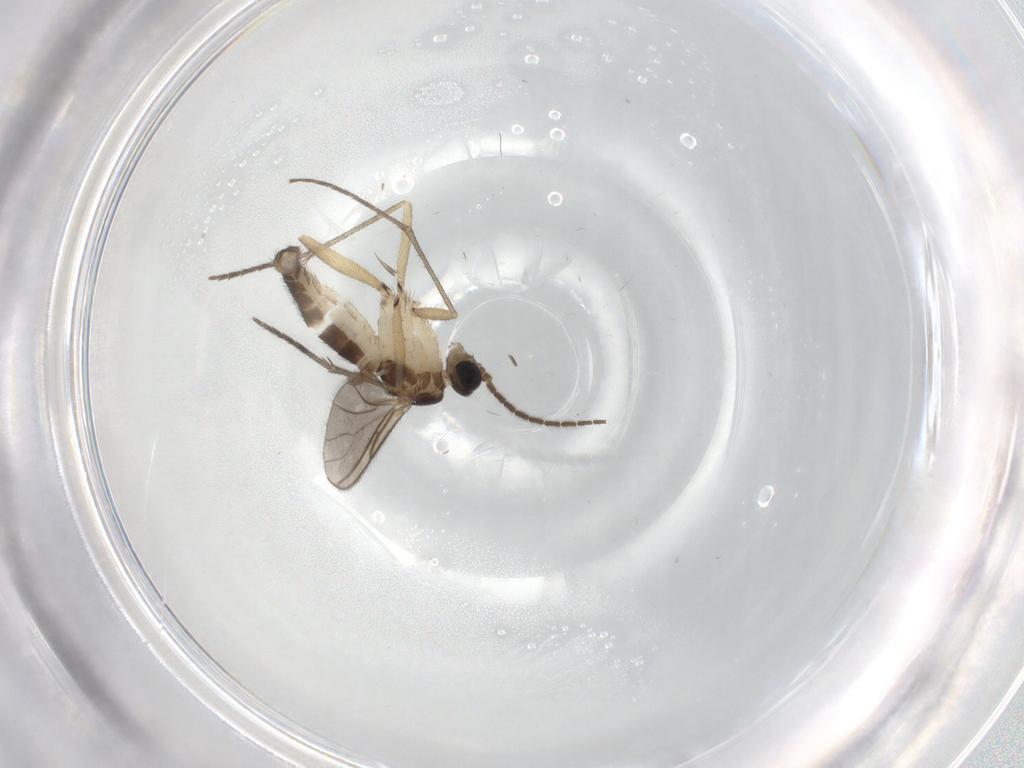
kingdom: Animalia
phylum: Arthropoda
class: Insecta
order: Diptera
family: Sciaridae
